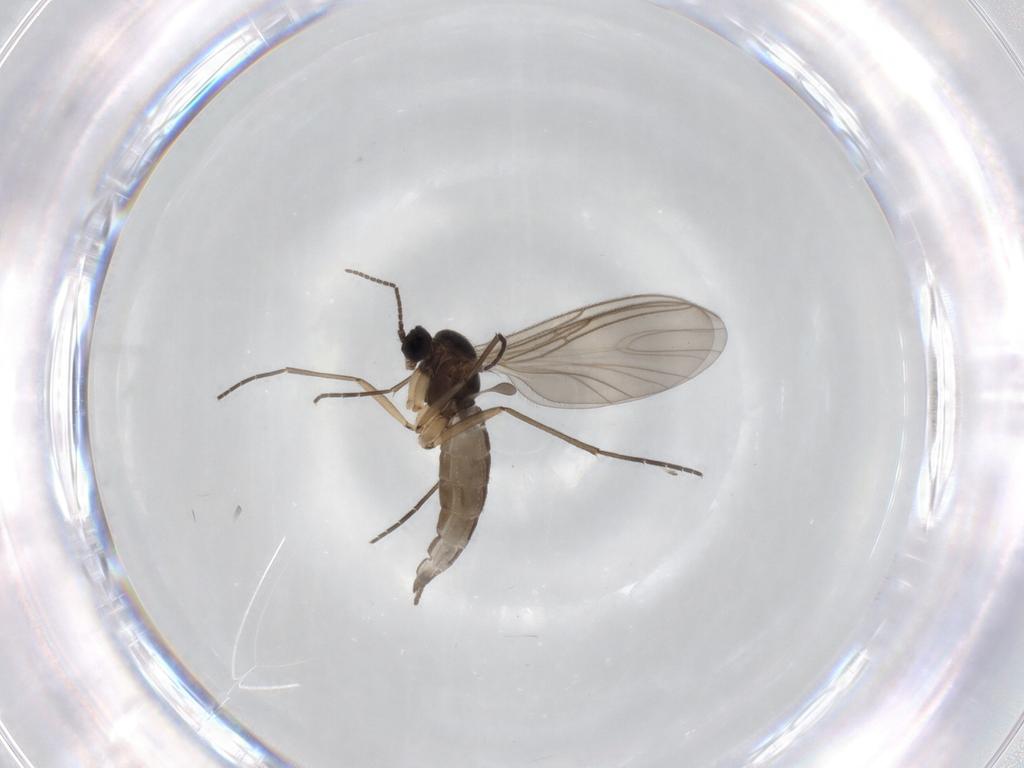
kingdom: Animalia
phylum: Arthropoda
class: Insecta
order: Diptera
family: Sciaridae
